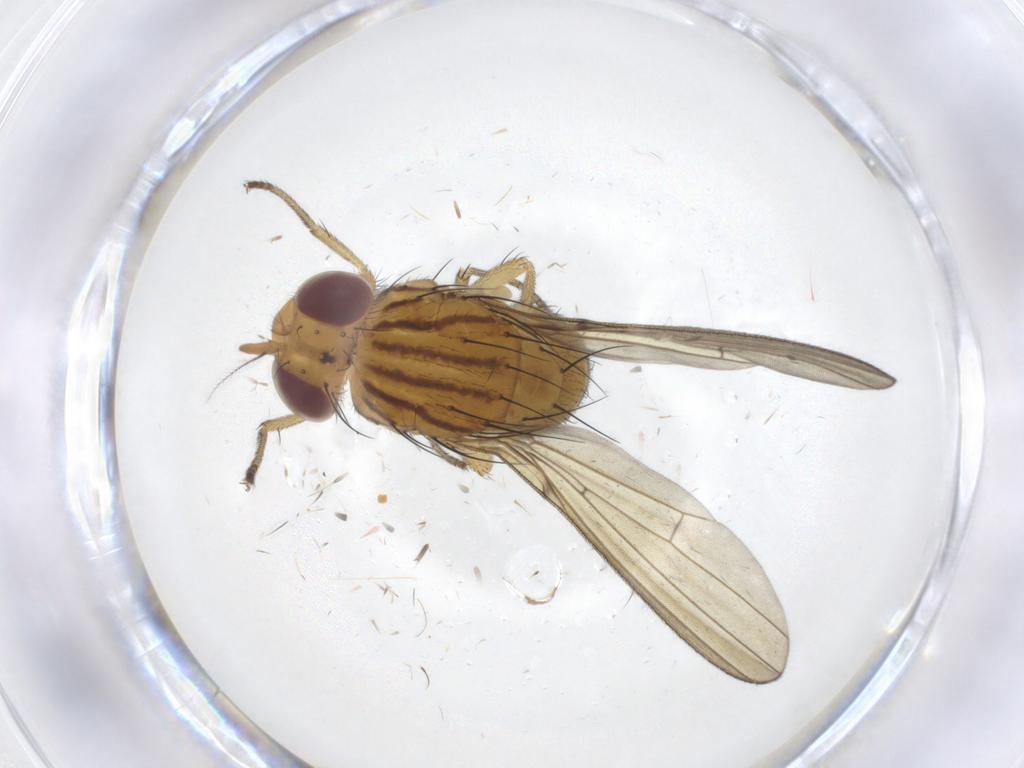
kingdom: Animalia
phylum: Arthropoda
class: Insecta
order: Diptera
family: Lauxaniidae
